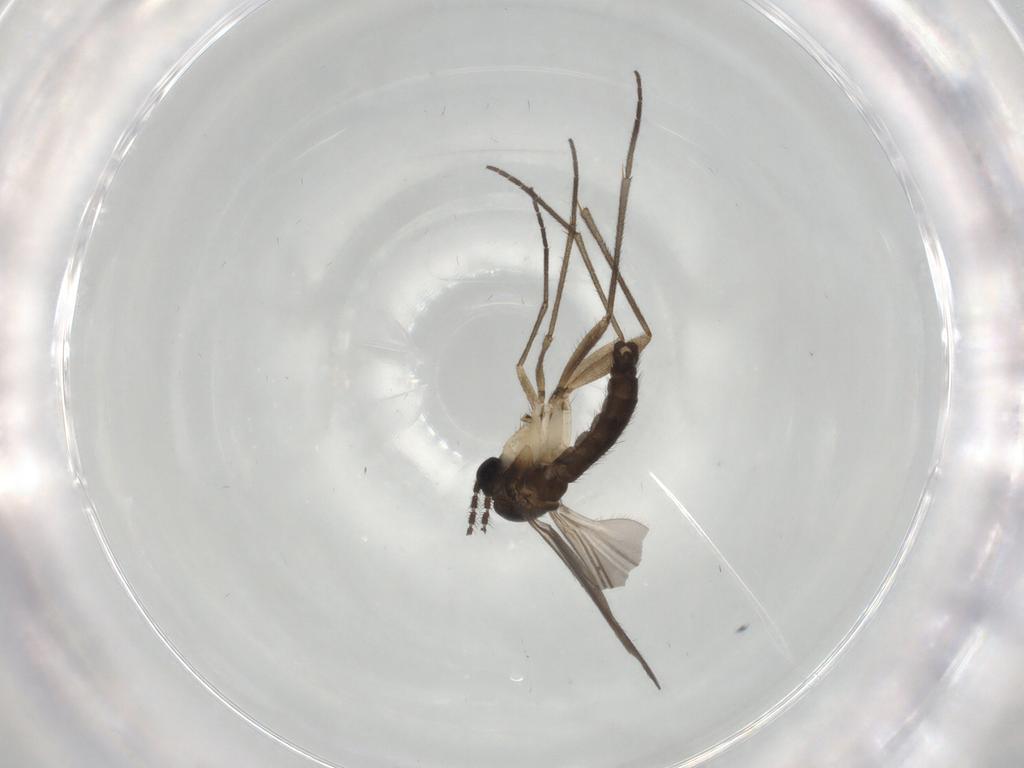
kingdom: Animalia
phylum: Arthropoda
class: Insecta
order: Diptera
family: Sciaridae
